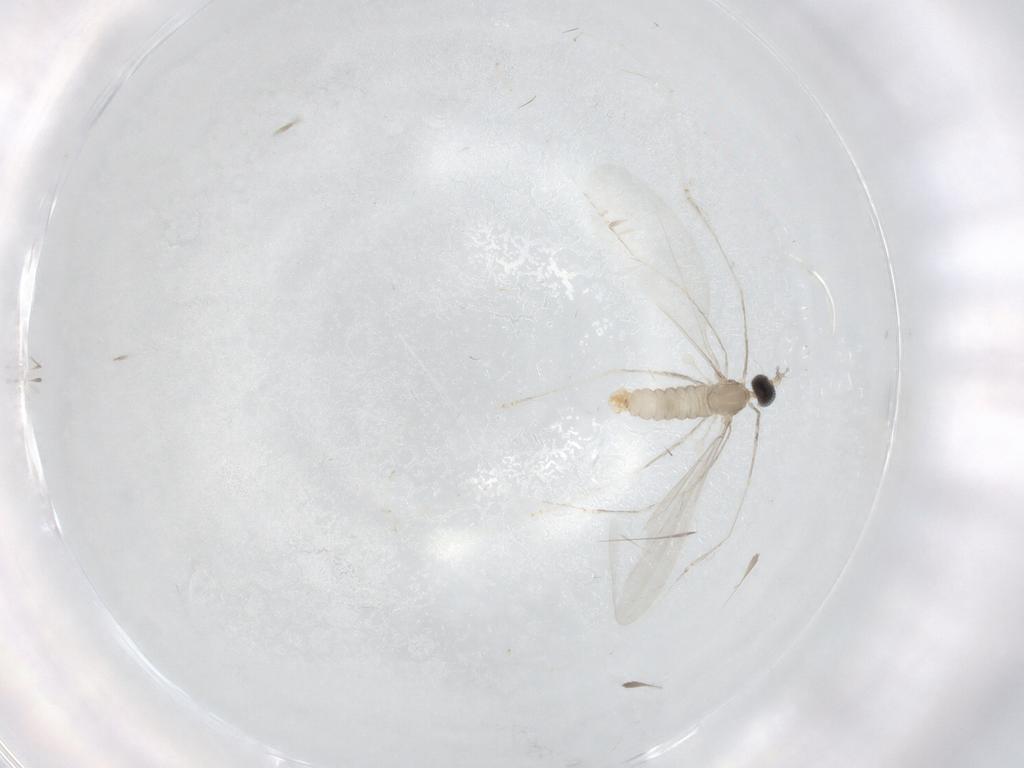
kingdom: Animalia
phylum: Arthropoda
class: Insecta
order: Diptera
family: Cecidomyiidae
